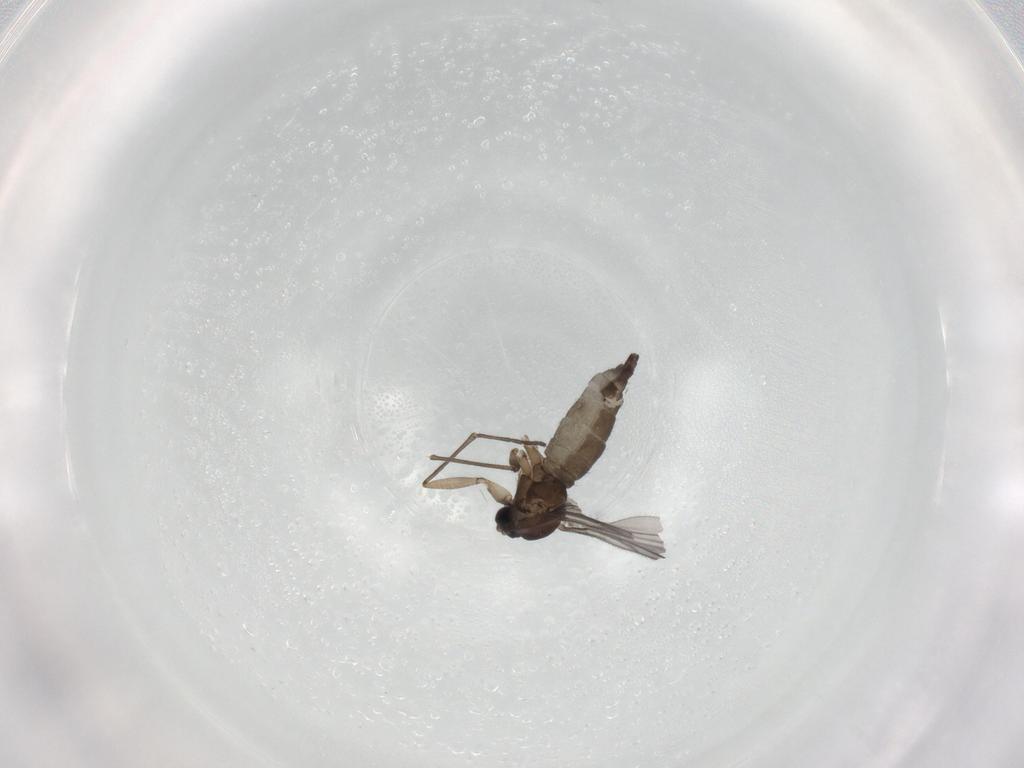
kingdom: Animalia
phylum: Arthropoda
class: Insecta
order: Diptera
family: Sciaridae
